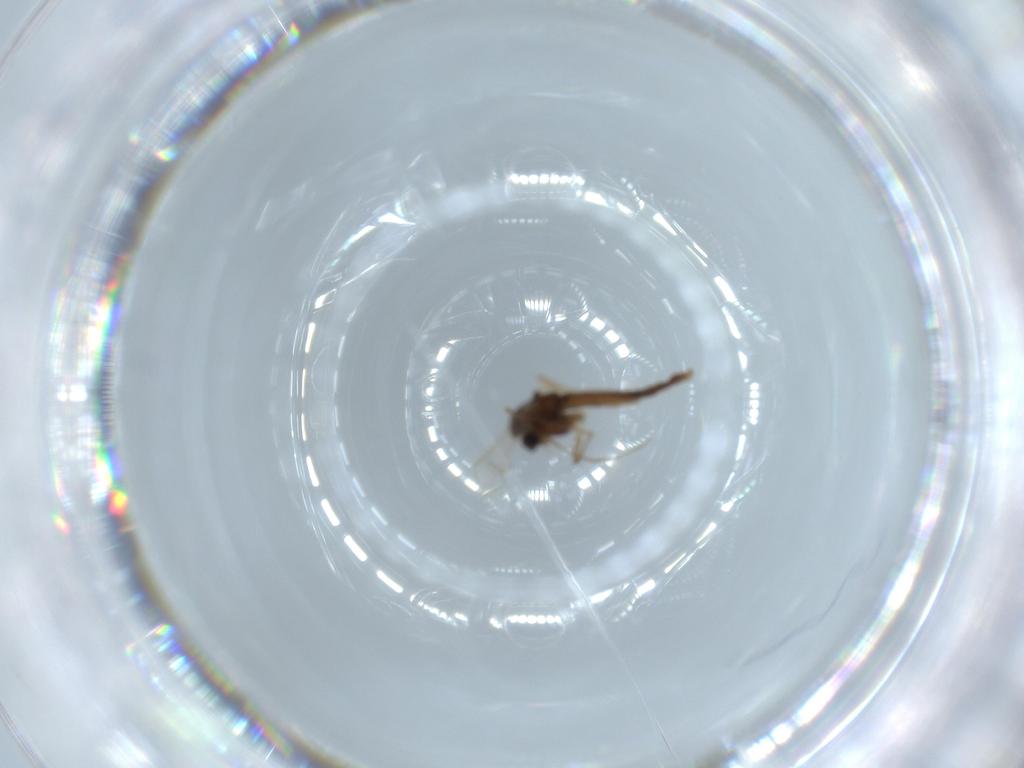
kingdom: Animalia
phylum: Arthropoda
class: Insecta
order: Diptera
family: Chironomidae
